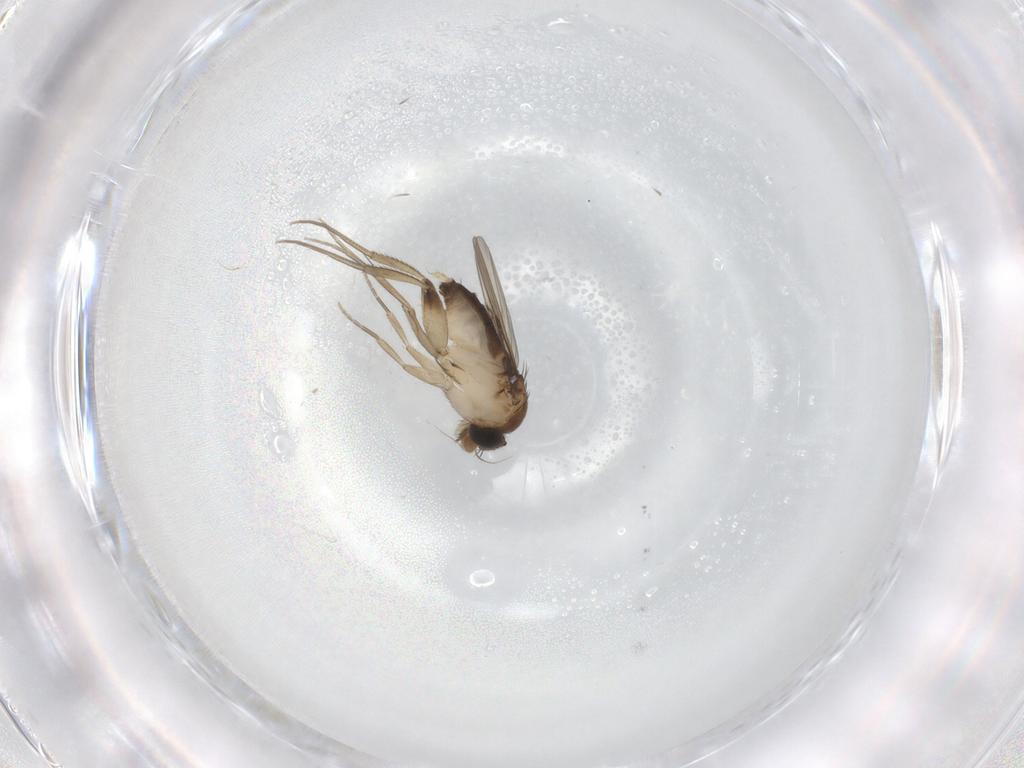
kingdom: Animalia
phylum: Arthropoda
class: Insecta
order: Diptera
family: Phoridae
